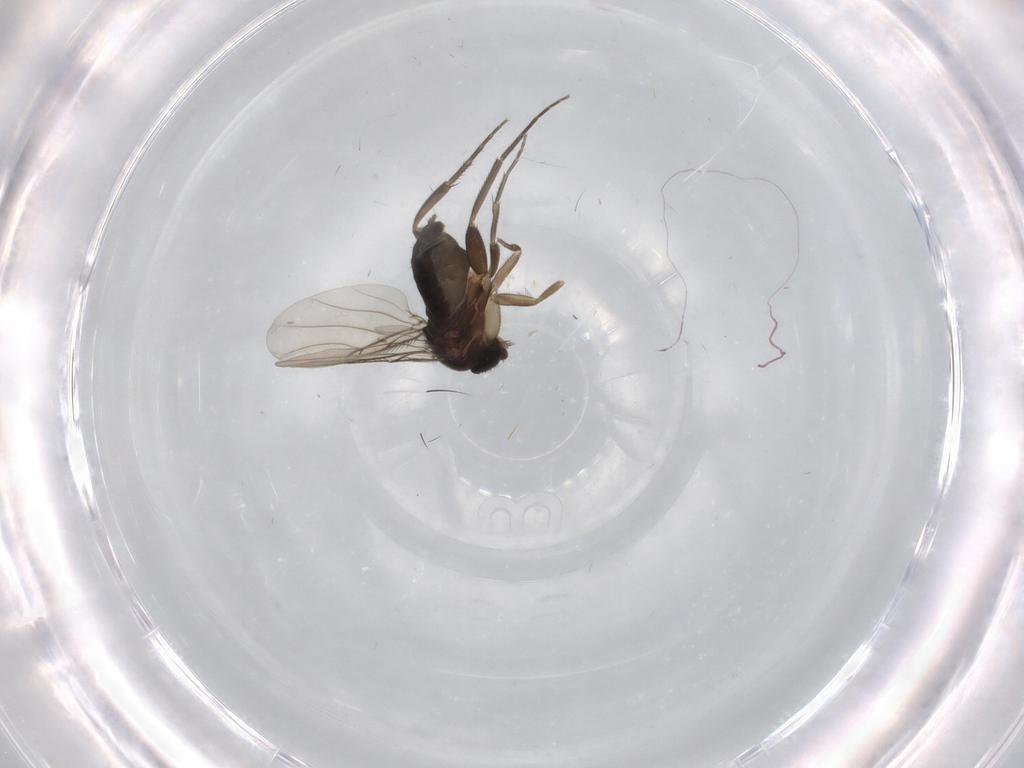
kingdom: Animalia
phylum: Arthropoda
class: Insecta
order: Diptera
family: Phoridae
